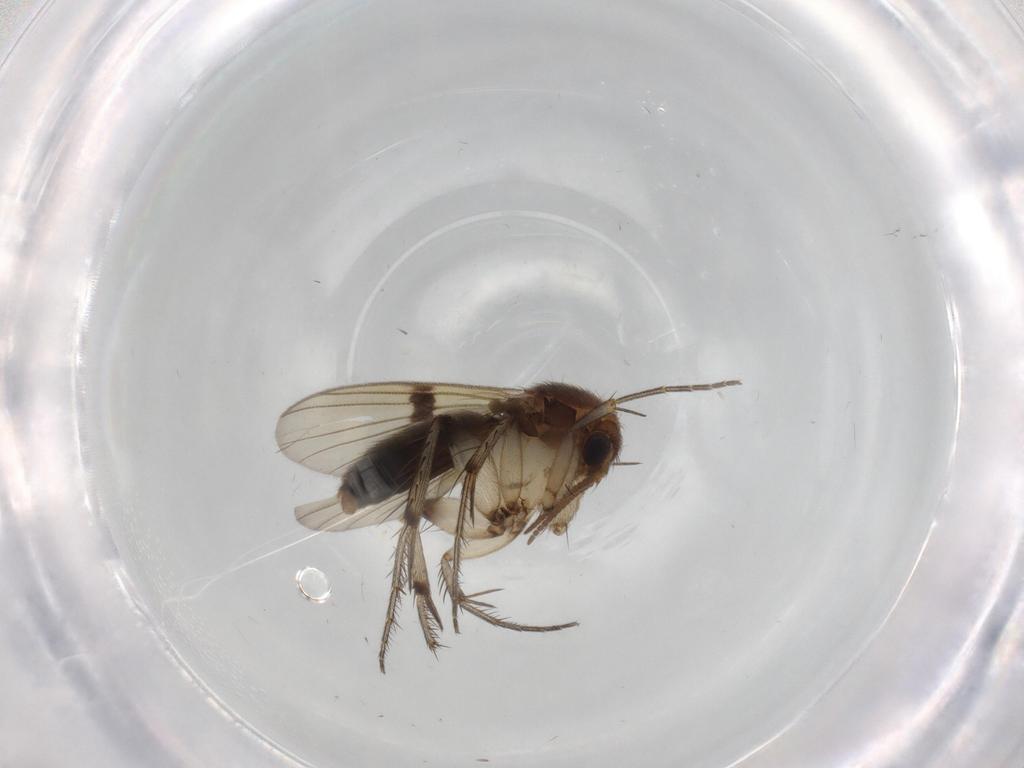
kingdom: Animalia
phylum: Arthropoda
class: Insecta
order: Diptera
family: Mycetophilidae
